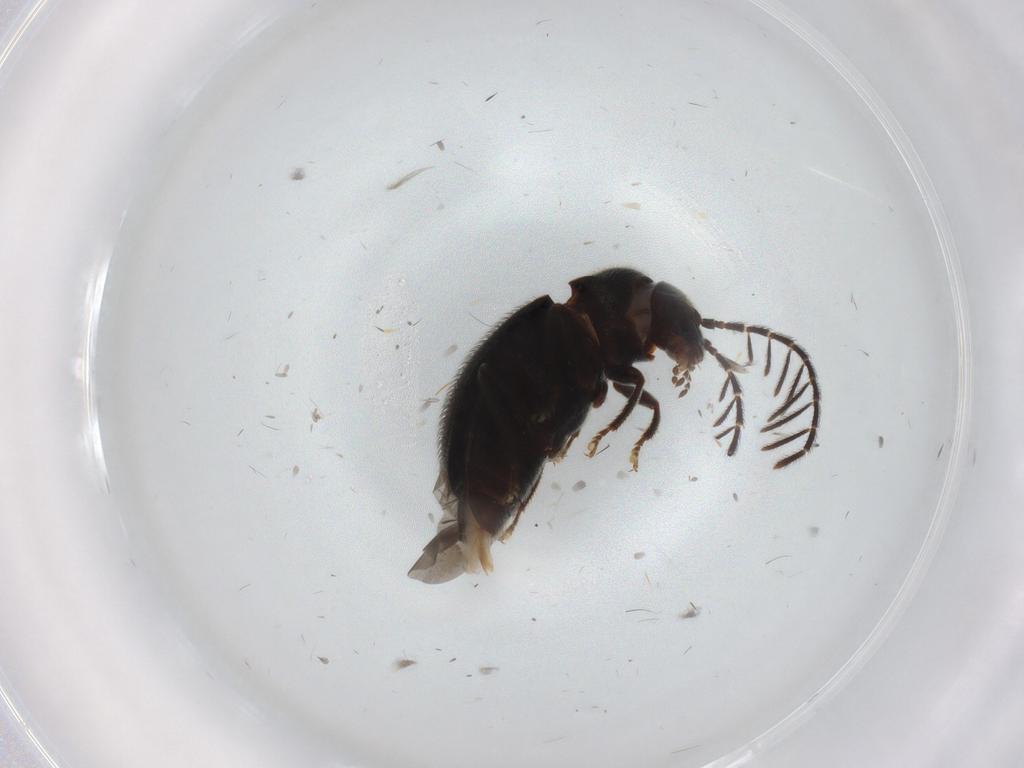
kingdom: Animalia
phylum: Arthropoda
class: Insecta
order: Coleoptera
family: Ptilodactylidae
